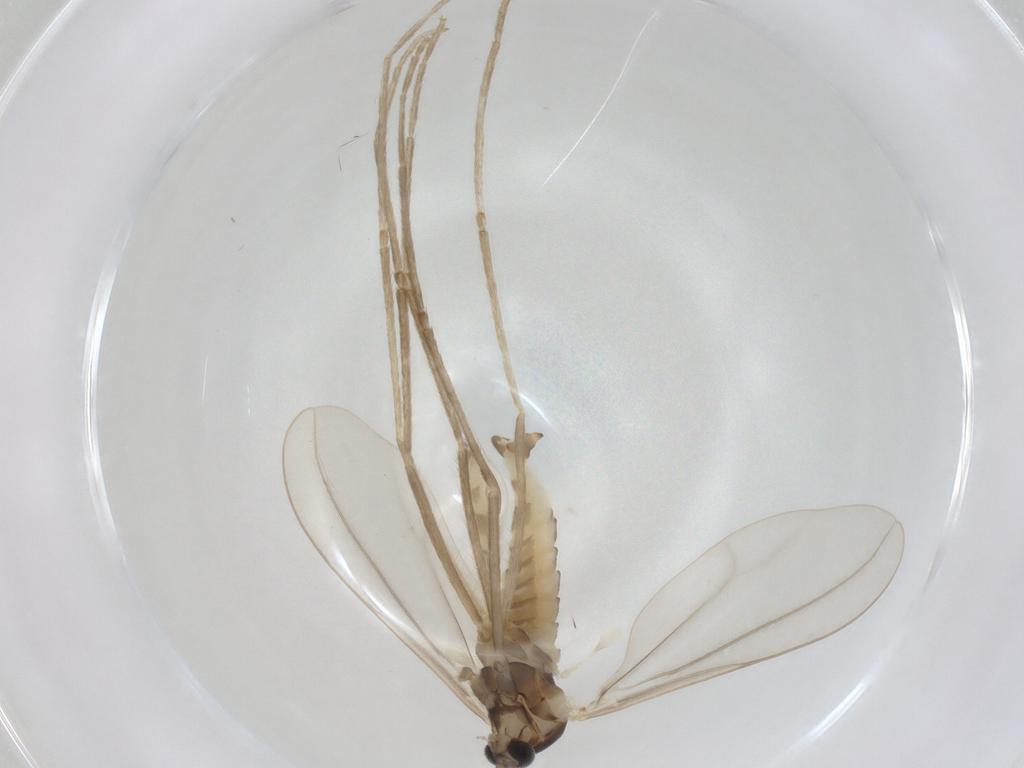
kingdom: Animalia
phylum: Arthropoda
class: Insecta
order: Diptera
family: Cecidomyiidae
